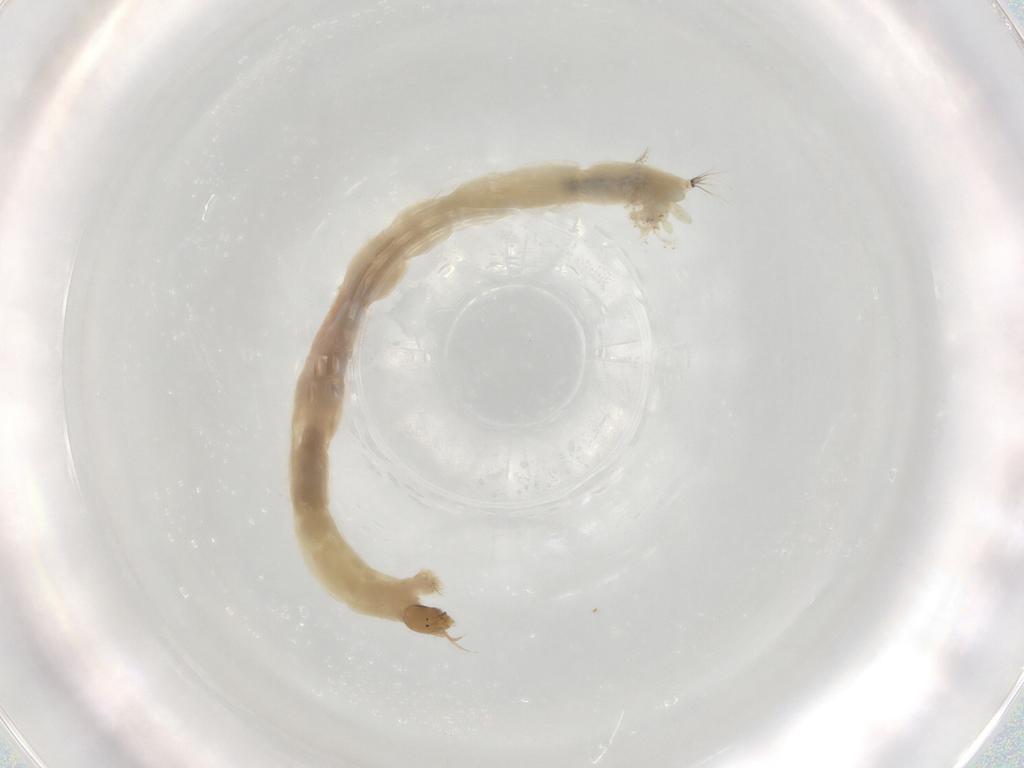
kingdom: Animalia
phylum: Arthropoda
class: Insecta
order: Diptera
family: Chironomidae
